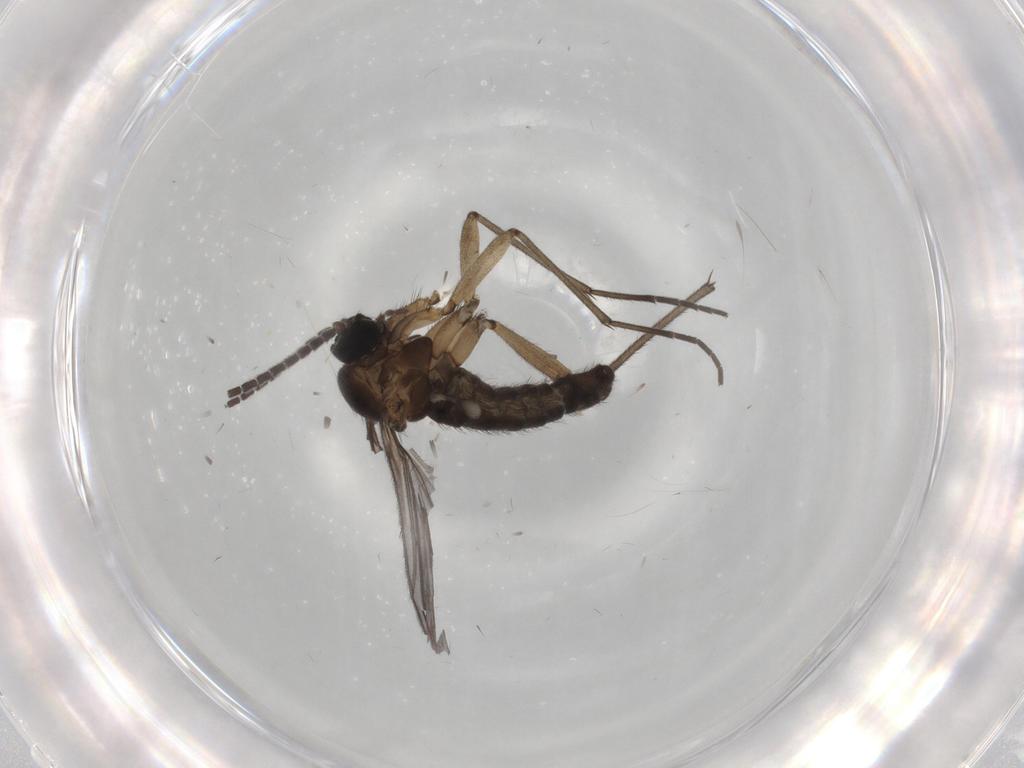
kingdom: Animalia
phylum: Arthropoda
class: Insecta
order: Diptera
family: Sciaridae
